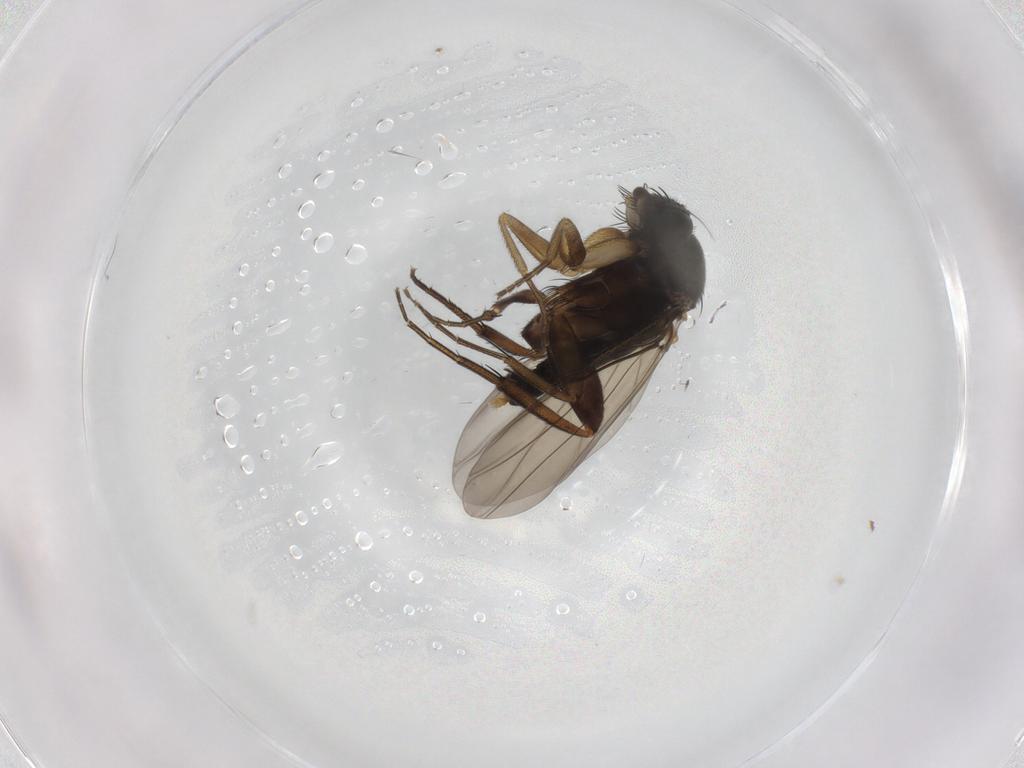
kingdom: Animalia
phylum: Arthropoda
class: Insecta
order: Diptera
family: Phoridae
